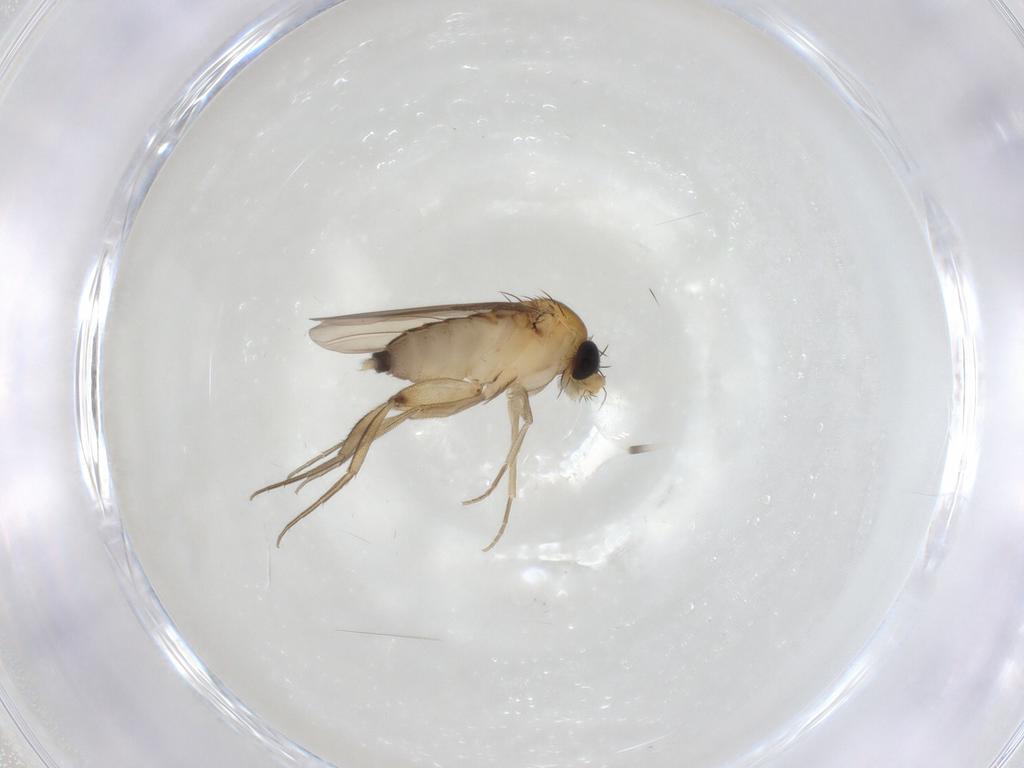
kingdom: Animalia
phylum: Arthropoda
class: Insecta
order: Diptera
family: Phoridae
